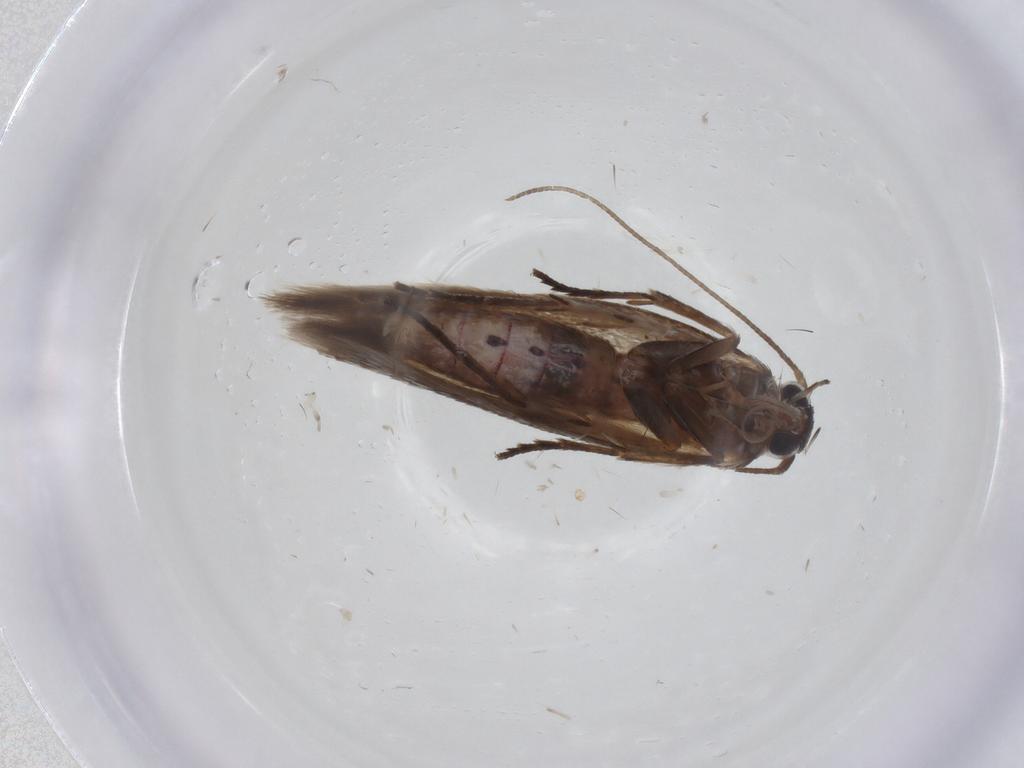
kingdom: Animalia
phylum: Arthropoda
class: Insecta
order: Lepidoptera
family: Cosmopterigidae
